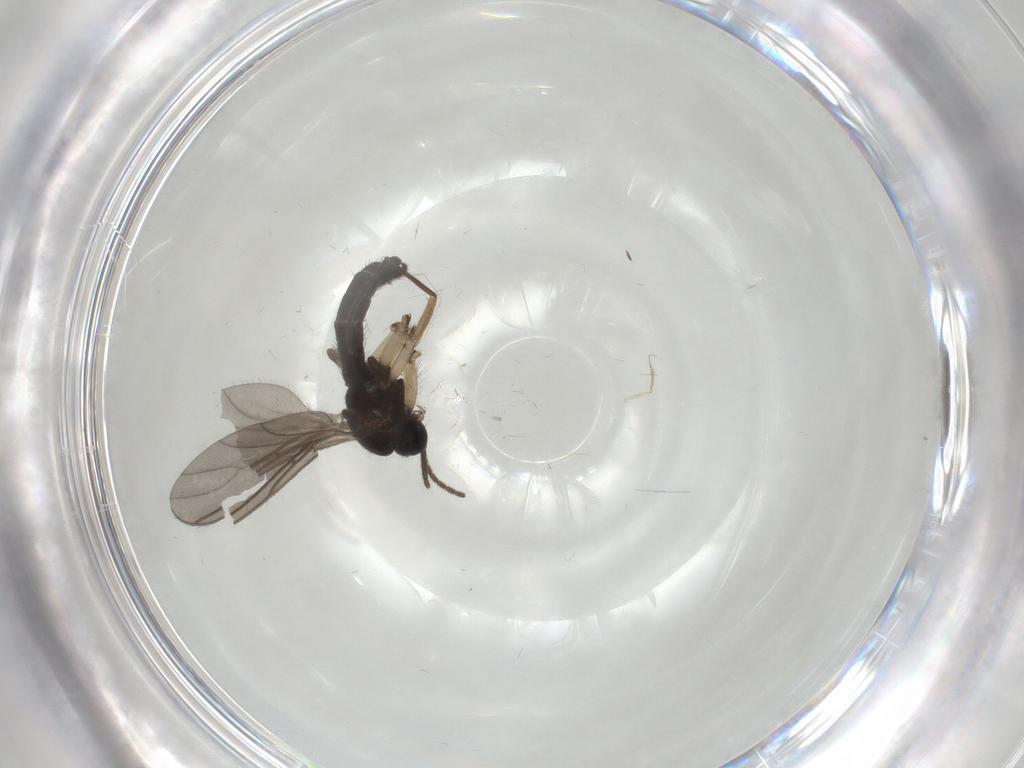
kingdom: Animalia
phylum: Arthropoda
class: Insecta
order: Diptera
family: Sciaridae
